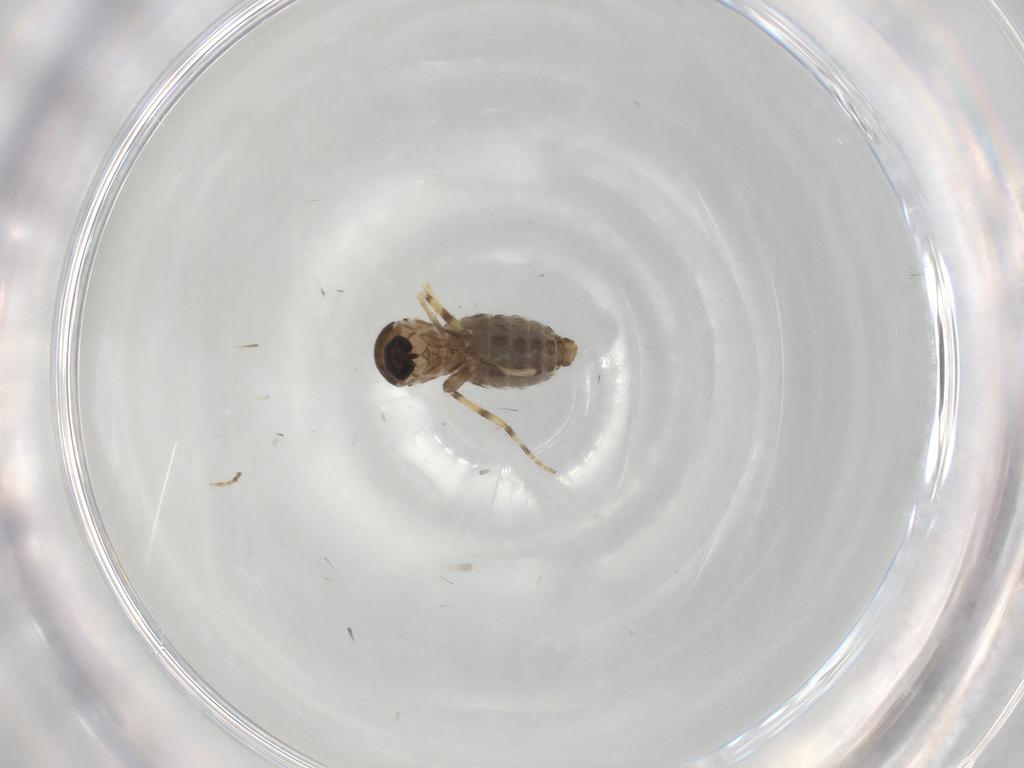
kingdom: Animalia
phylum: Arthropoda
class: Insecta
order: Diptera
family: Ceratopogonidae
